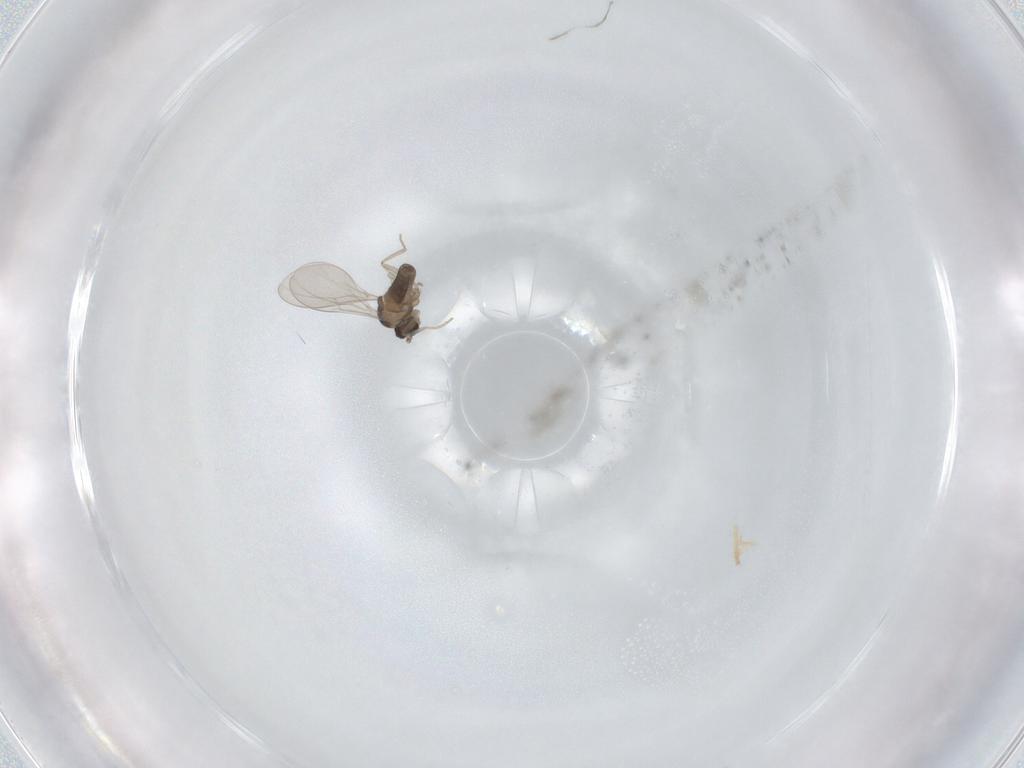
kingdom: Animalia
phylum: Arthropoda
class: Insecta
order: Diptera
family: Cecidomyiidae
